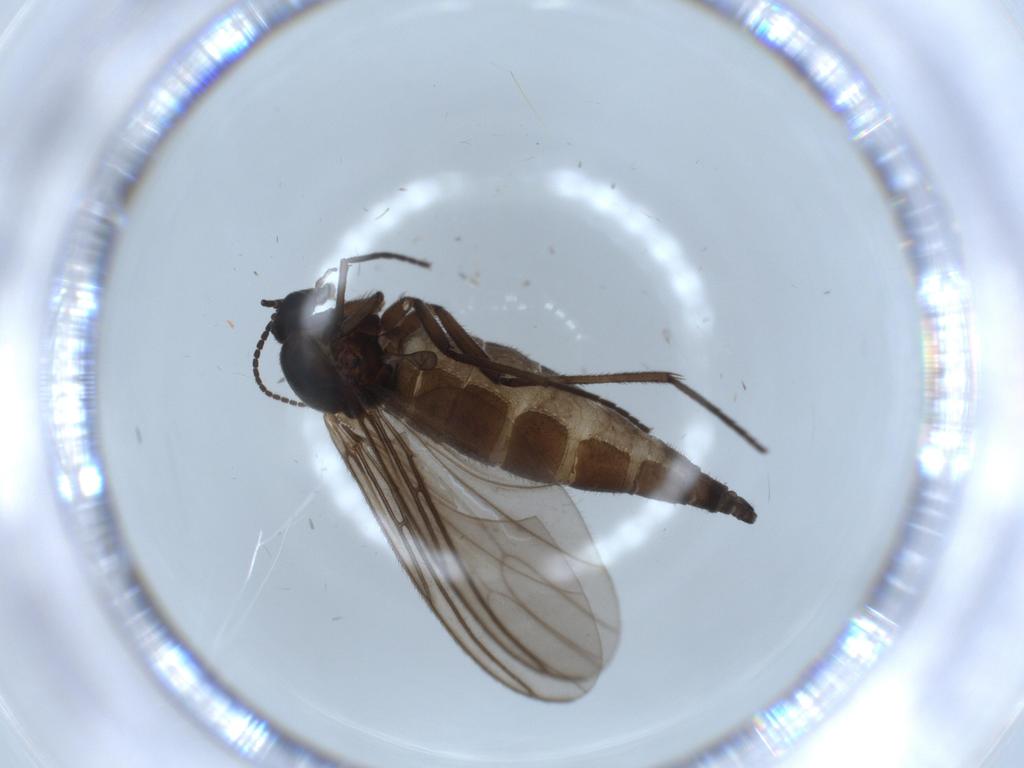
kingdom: Animalia
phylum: Arthropoda
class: Insecta
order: Diptera
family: Sciaridae
